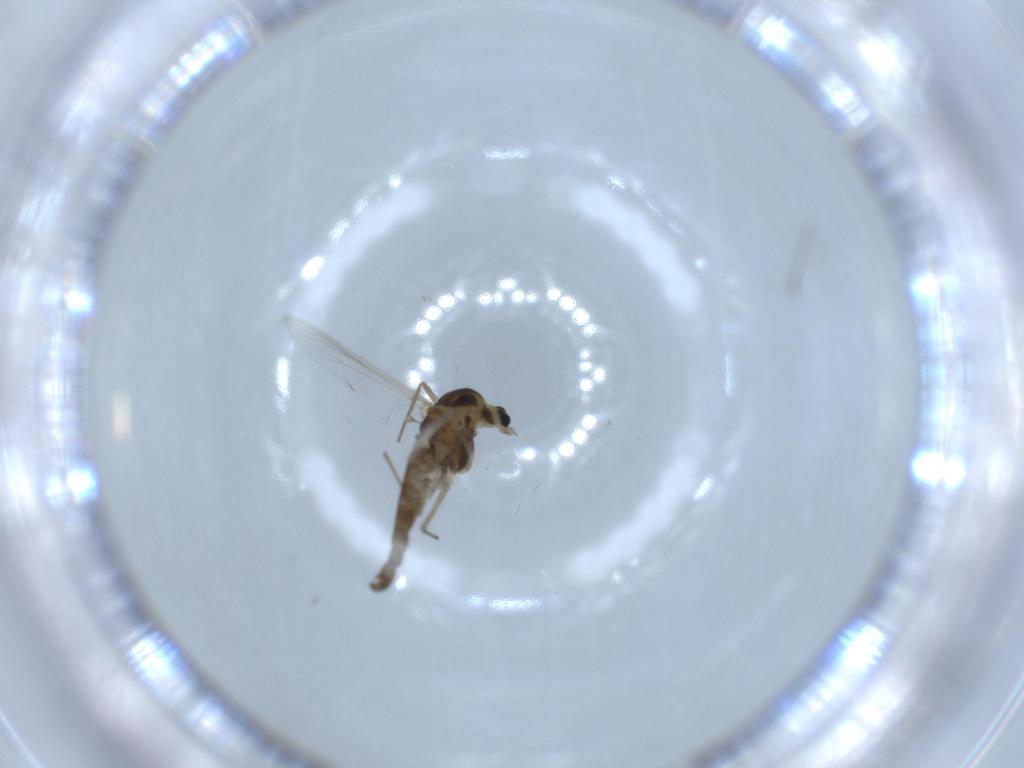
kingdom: Animalia
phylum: Arthropoda
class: Insecta
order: Diptera
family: Chironomidae
